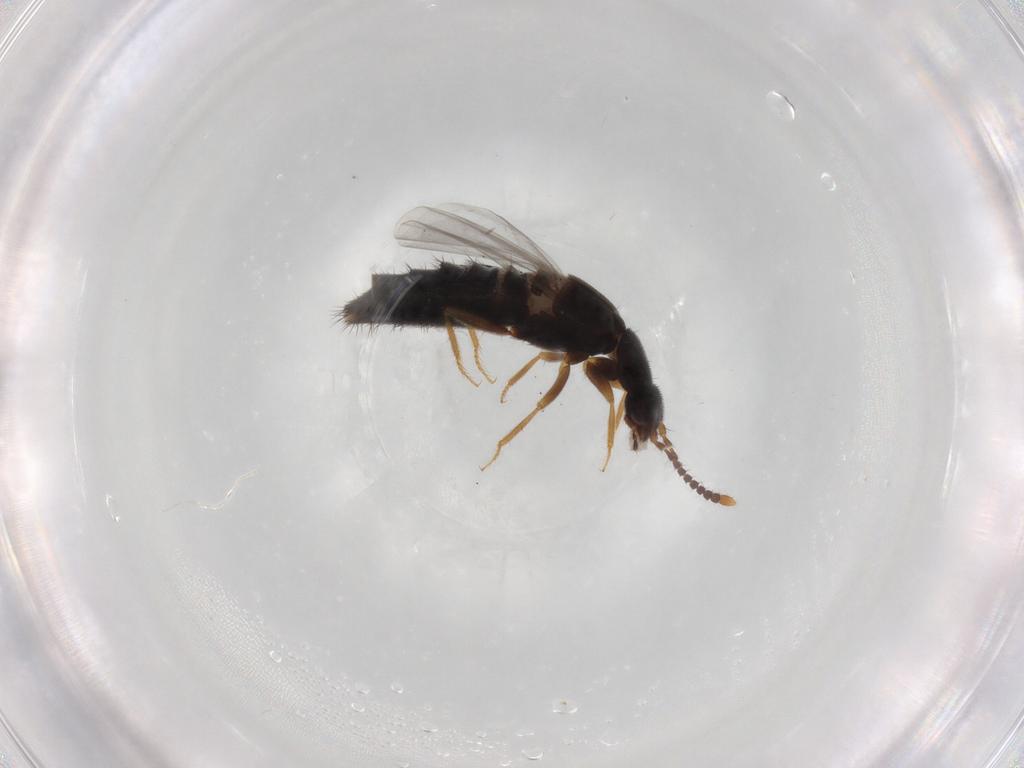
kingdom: Animalia
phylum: Arthropoda
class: Insecta
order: Coleoptera
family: Staphylinidae
